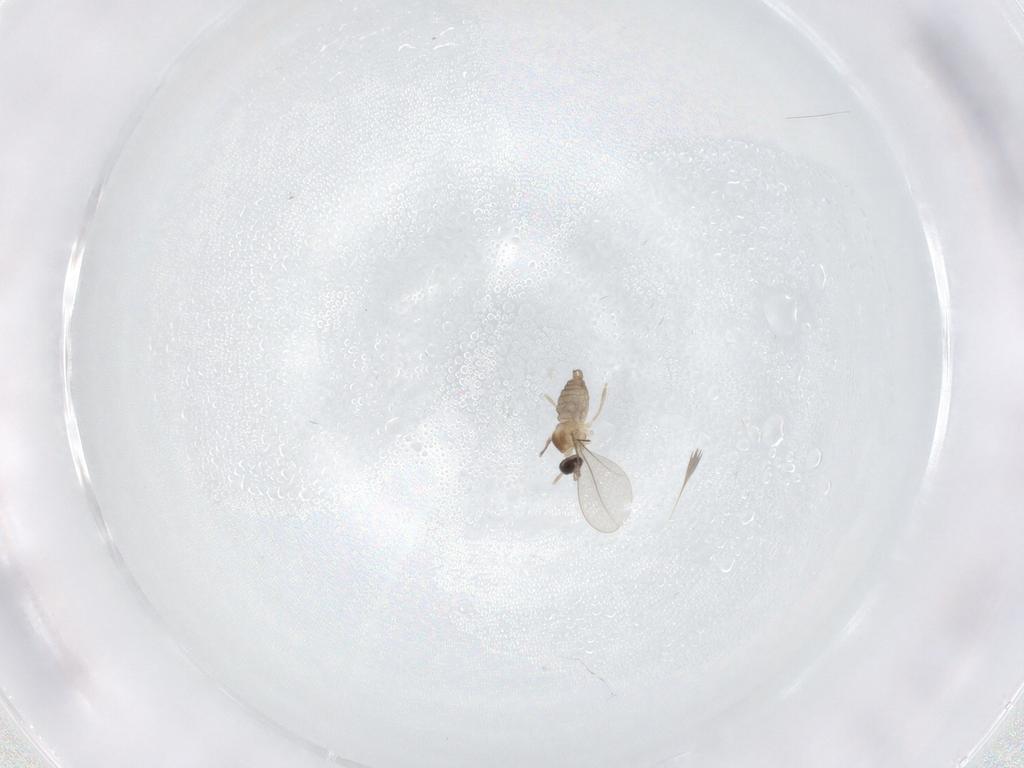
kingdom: Animalia
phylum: Arthropoda
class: Insecta
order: Diptera
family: Cecidomyiidae
